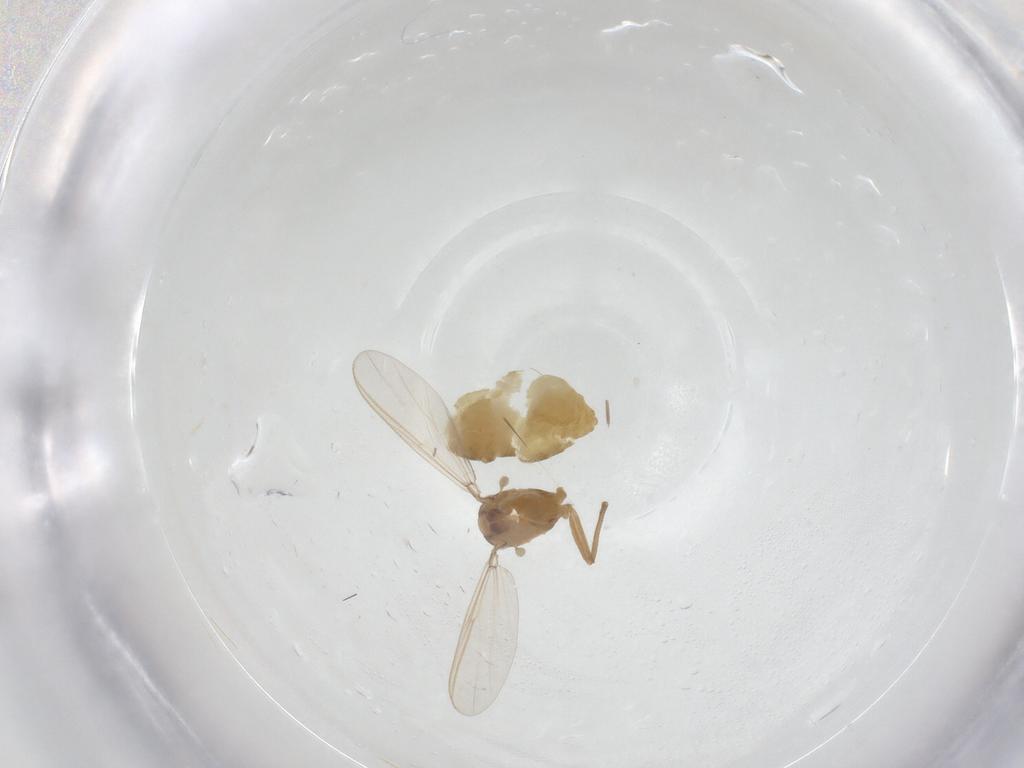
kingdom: Animalia
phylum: Arthropoda
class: Insecta
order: Diptera
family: Chironomidae
